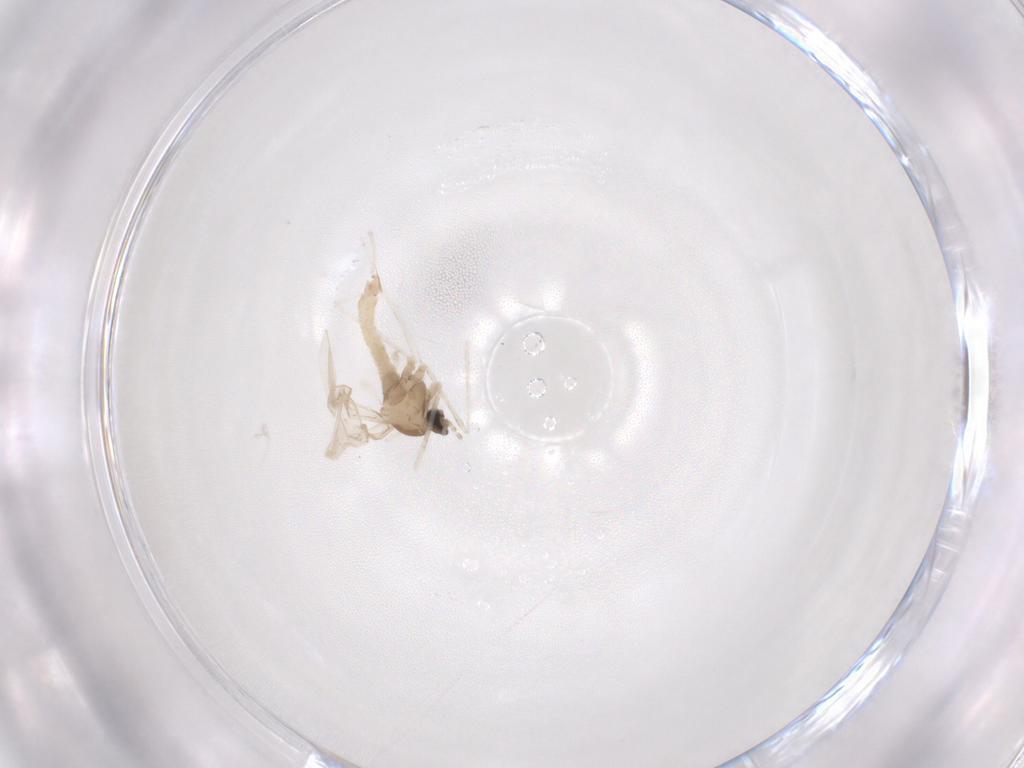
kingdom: Animalia
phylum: Arthropoda
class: Insecta
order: Diptera
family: Cecidomyiidae
